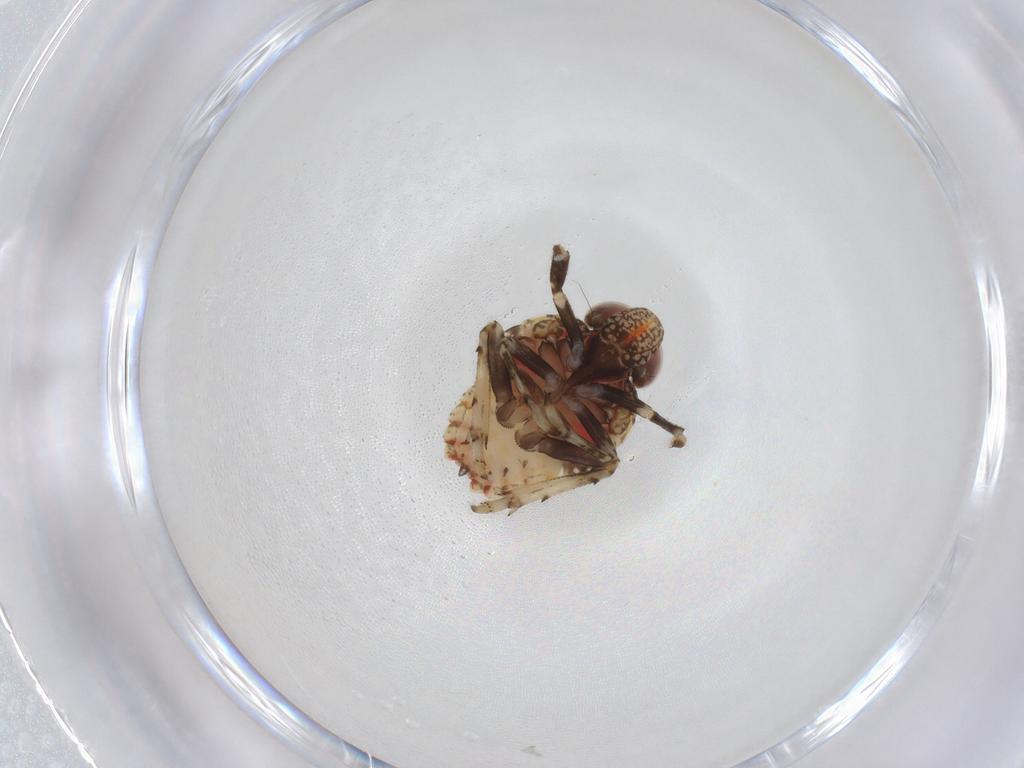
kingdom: Animalia
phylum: Arthropoda
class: Insecta
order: Hemiptera
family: Issidae
